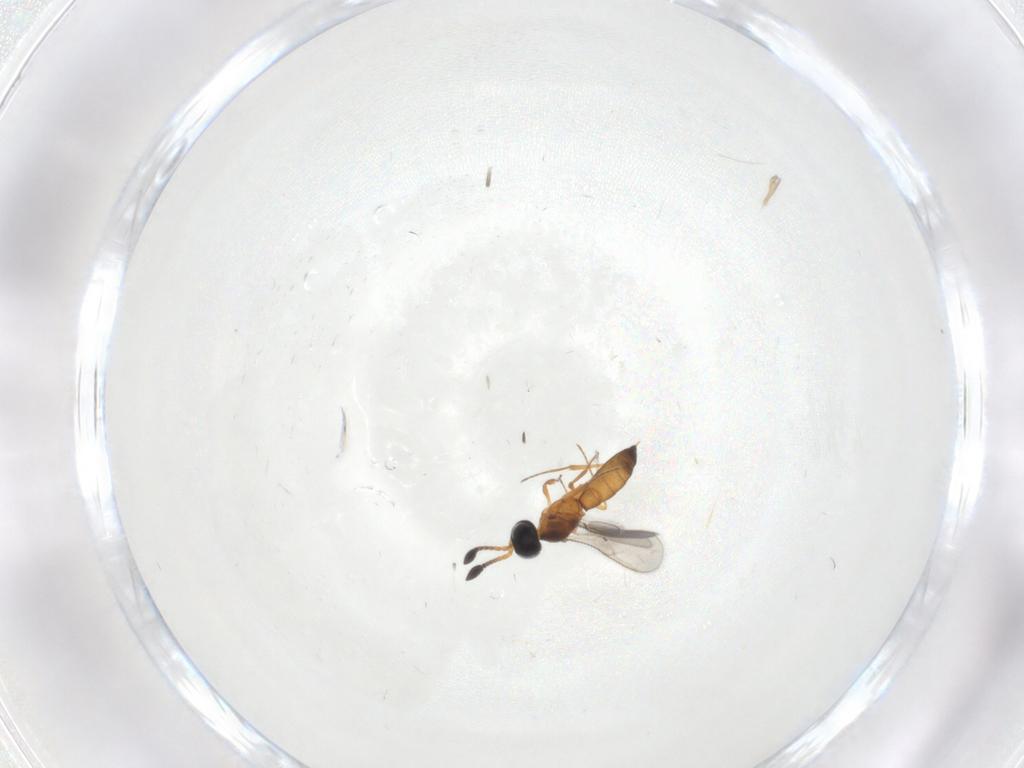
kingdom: Animalia
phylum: Arthropoda
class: Insecta
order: Hymenoptera
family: Scelionidae
